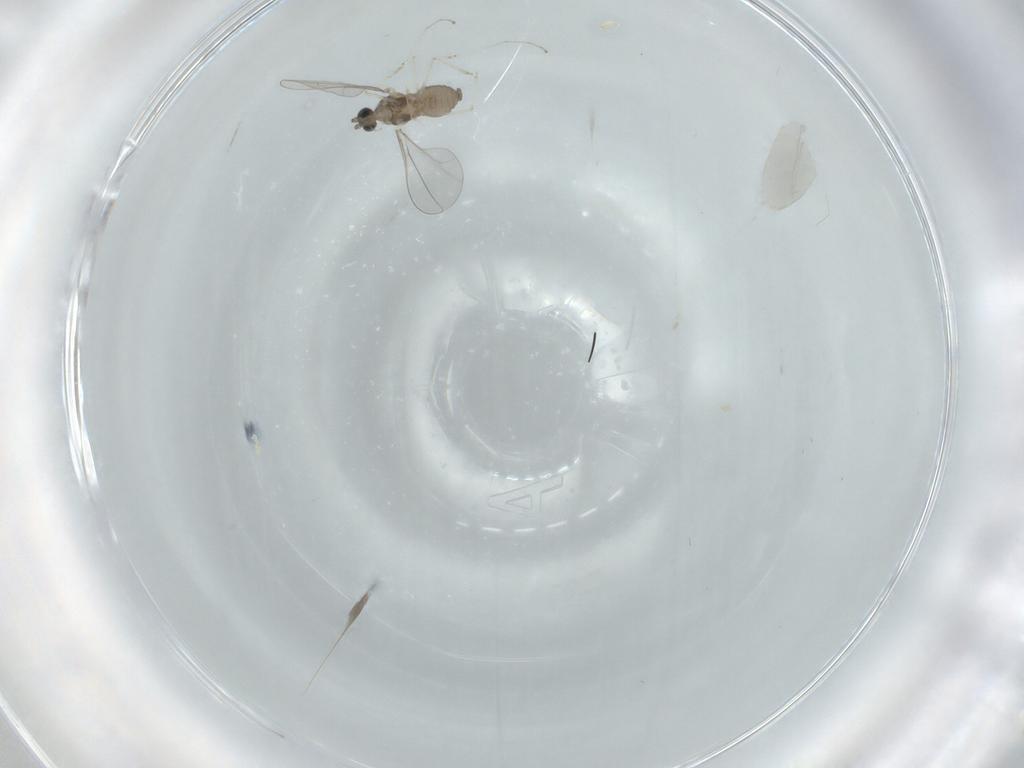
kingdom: Animalia
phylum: Arthropoda
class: Insecta
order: Diptera
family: Cecidomyiidae
